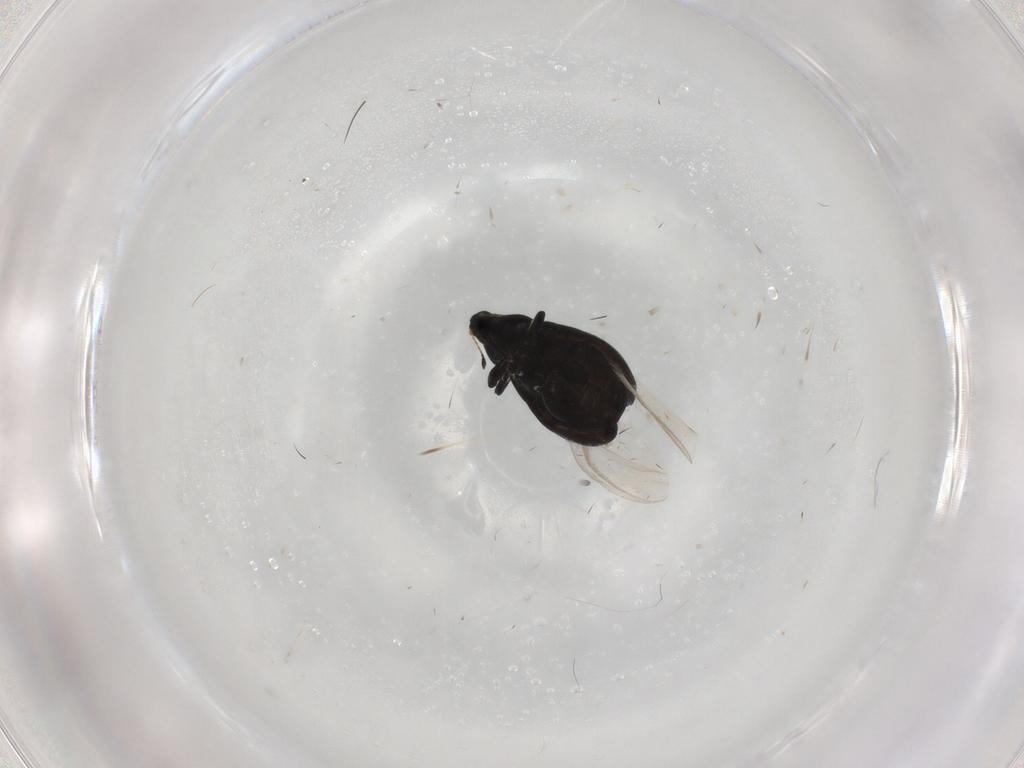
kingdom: Animalia
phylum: Arthropoda
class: Insecta
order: Coleoptera
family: Curculionidae
